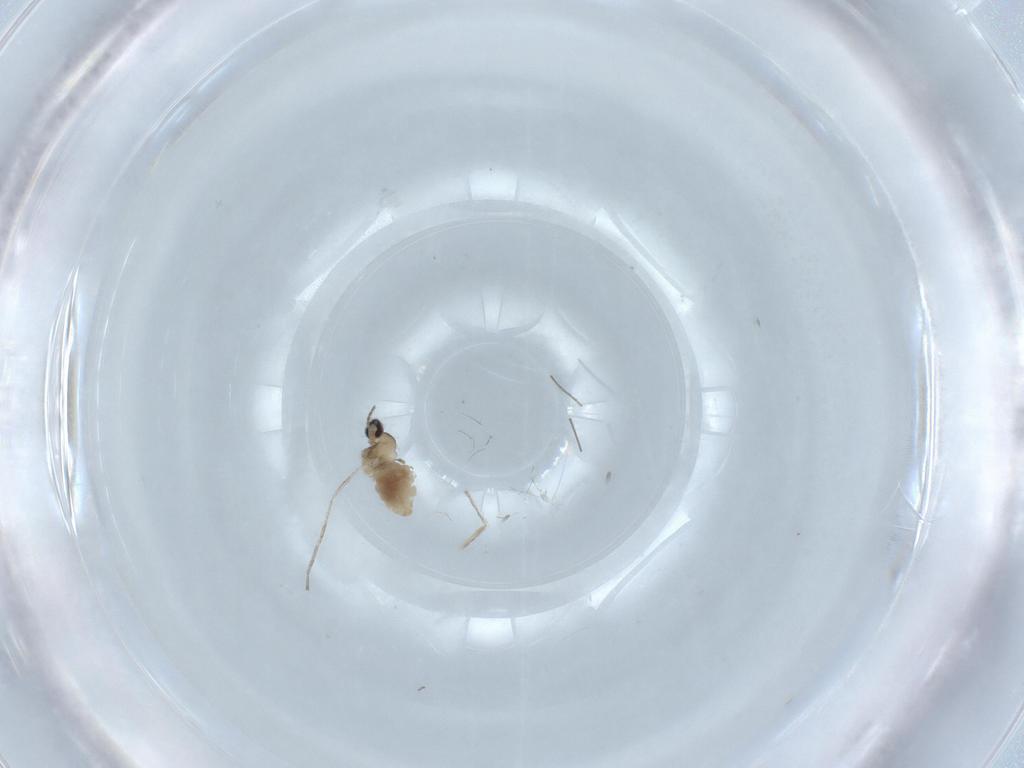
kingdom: Animalia
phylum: Arthropoda
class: Insecta
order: Diptera
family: Chironomidae
